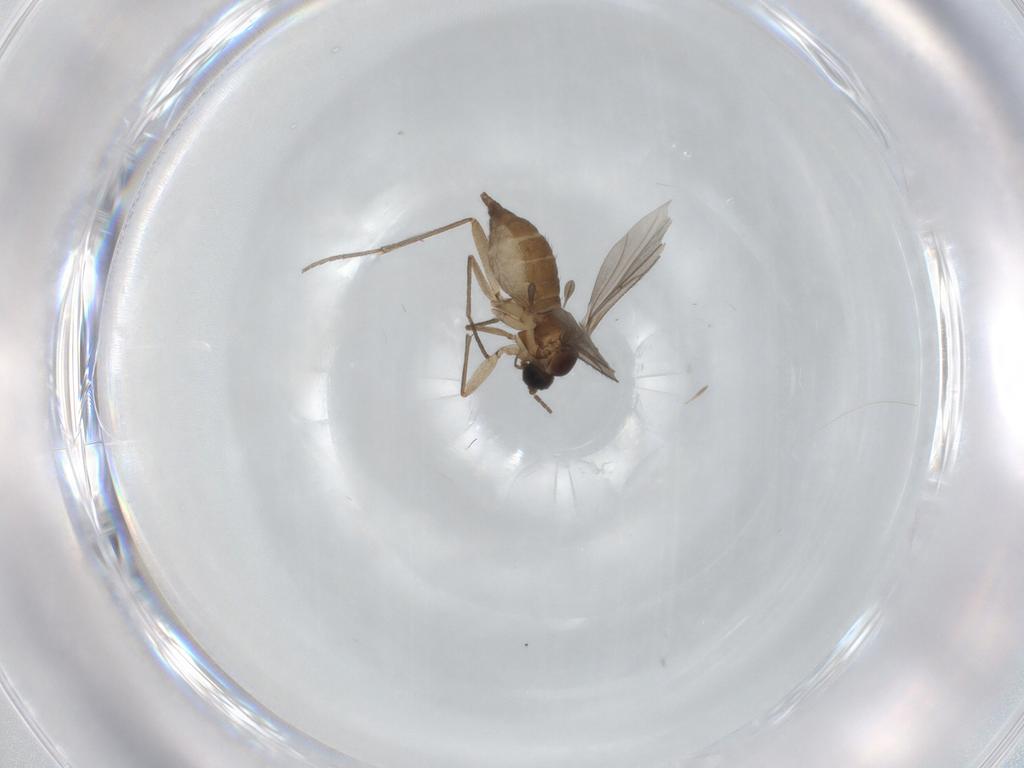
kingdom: Animalia
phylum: Arthropoda
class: Insecta
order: Diptera
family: Sciaridae
